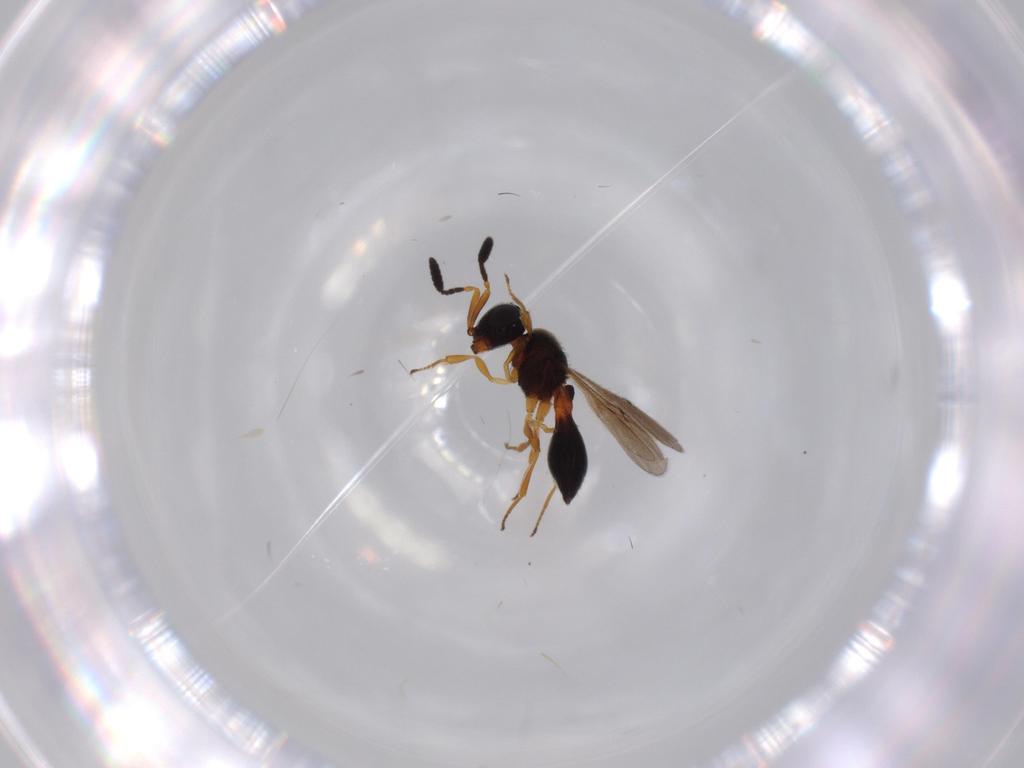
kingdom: Animalia
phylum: Arthropoda
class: Insecta
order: Hymenoptera
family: Scelionidae
